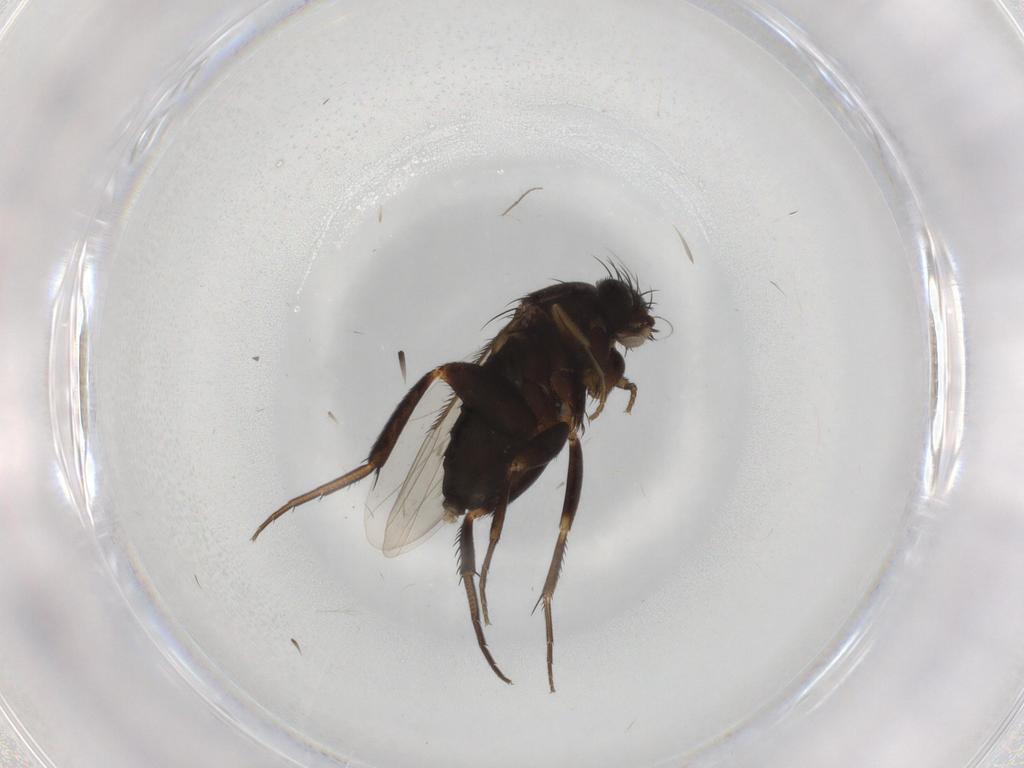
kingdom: Animalia
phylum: Arthropoda
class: Insecta
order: Diptera
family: Phoridae
